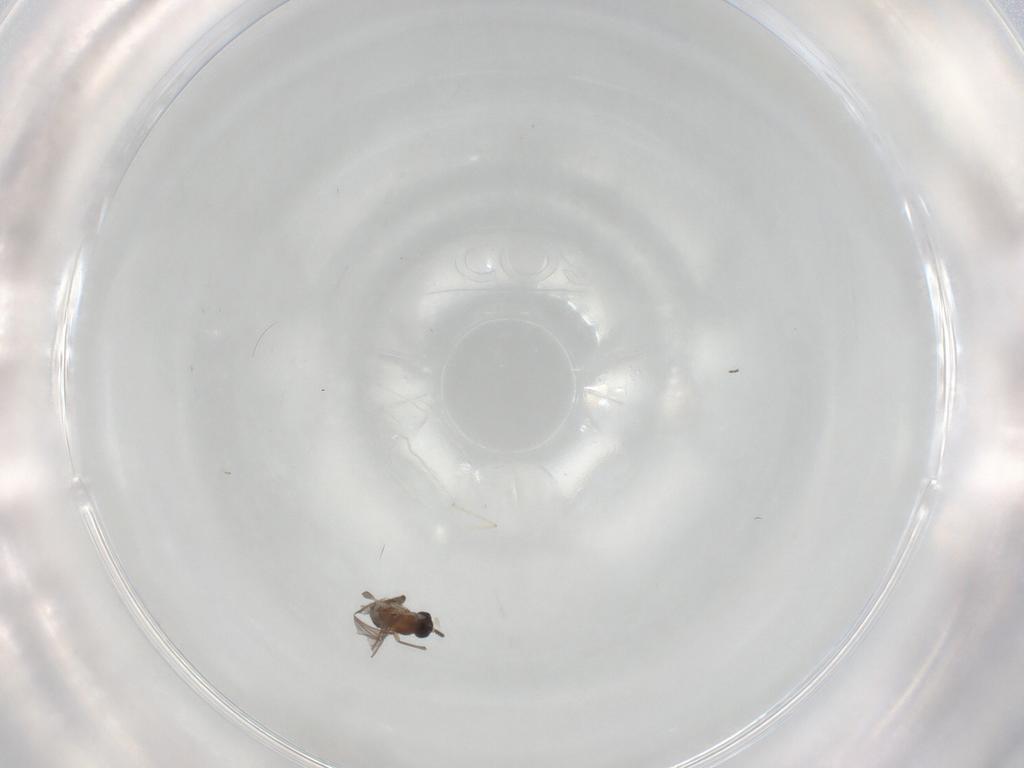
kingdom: Animalia
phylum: Arthropoda
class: Insecta
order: Diptera
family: Sciaridae
